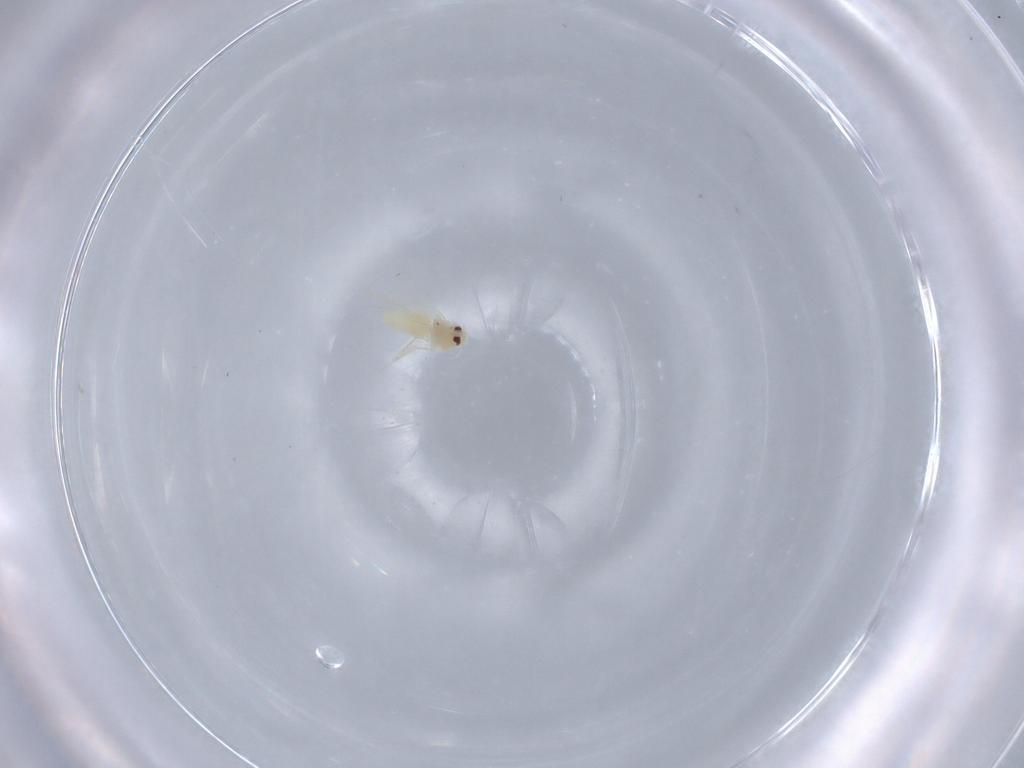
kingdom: Animalia
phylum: Arthropoda
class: Insecta
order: Hemiptera
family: Aleyrodidae
